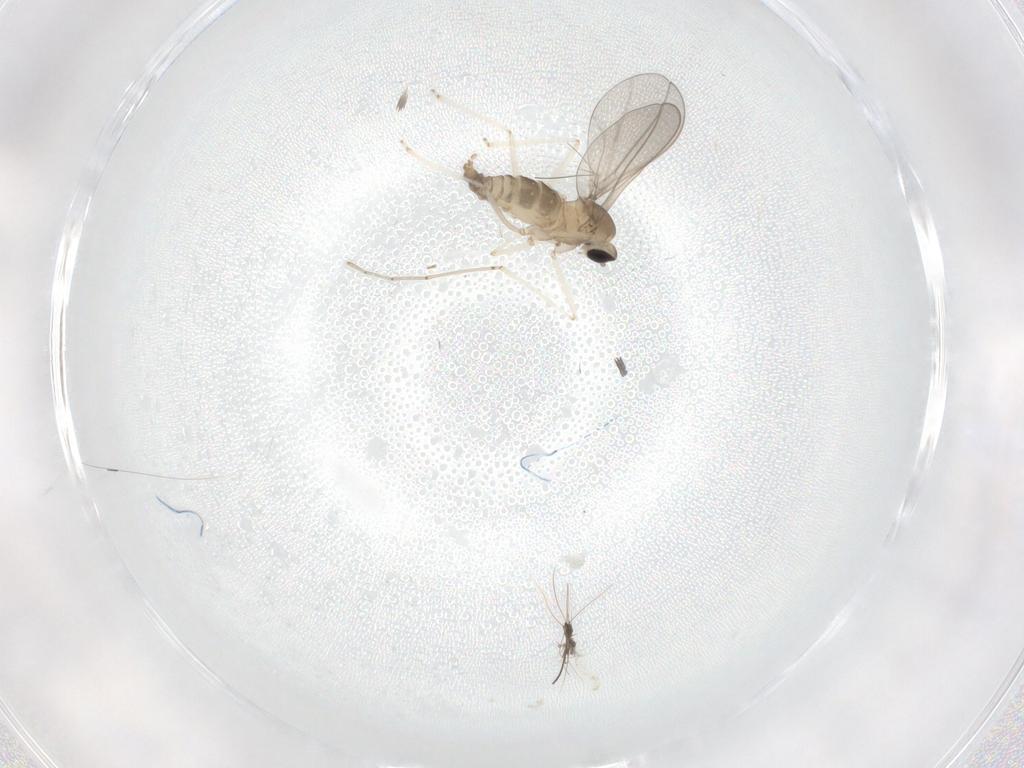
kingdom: Animalia
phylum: Arthropoda
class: Insecta
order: Diptera
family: Cecidomyiidae
